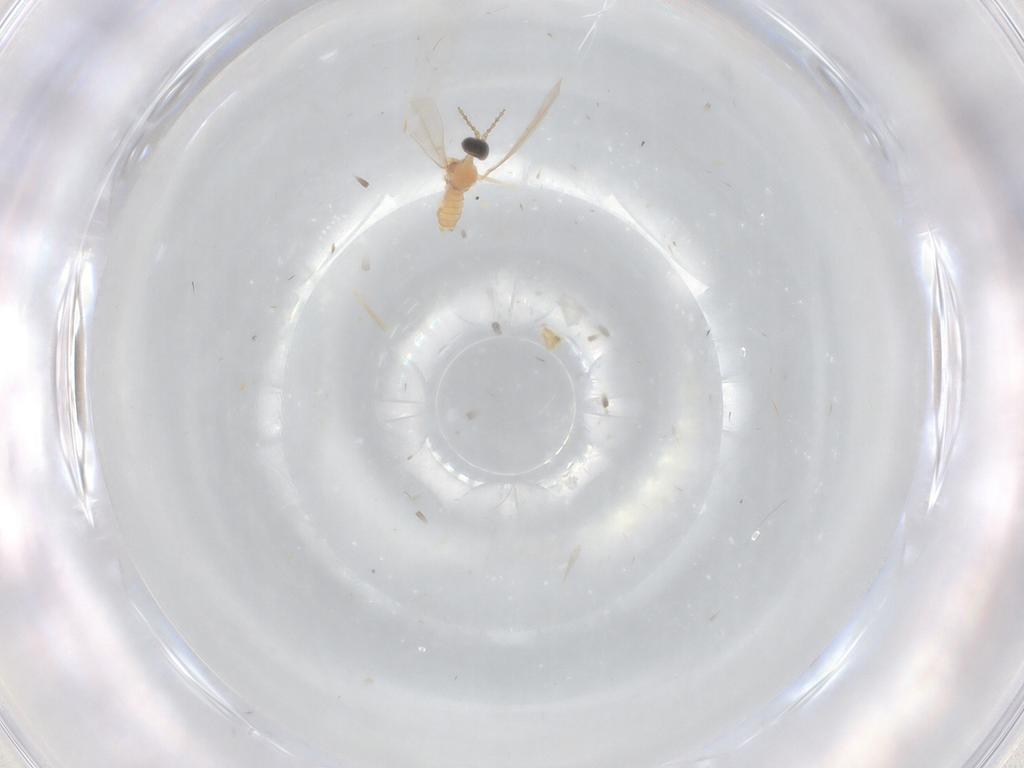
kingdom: Animalia
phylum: Arthropoda
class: Insecta
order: Diptera
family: Chironomidae
